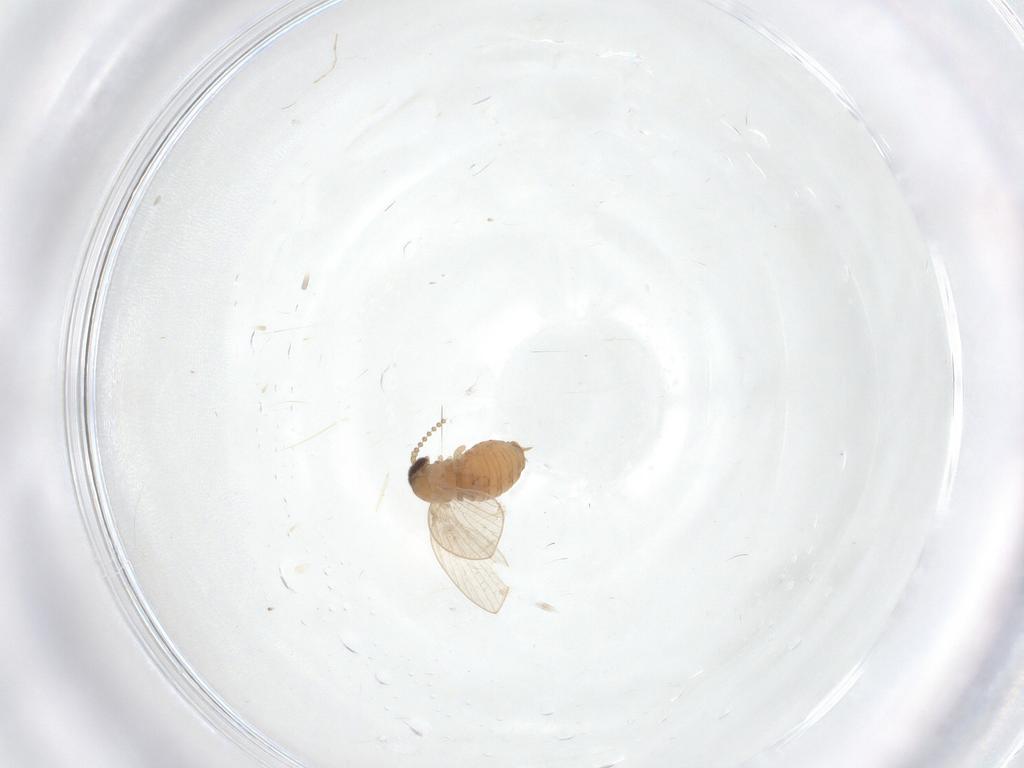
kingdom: Animalia
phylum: Arthropoda
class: Insecta
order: Diptera
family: Psychodidae
